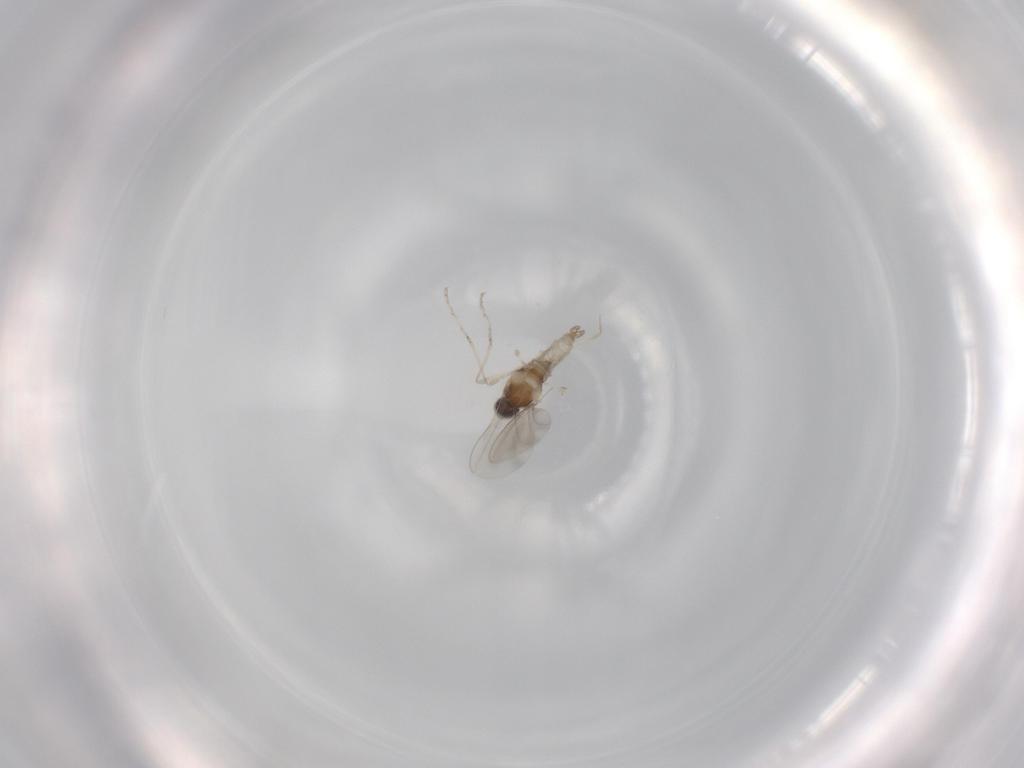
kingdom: Animalia
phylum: Arthropoda
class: Insecta
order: Diptera
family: Cecidomyiidae
